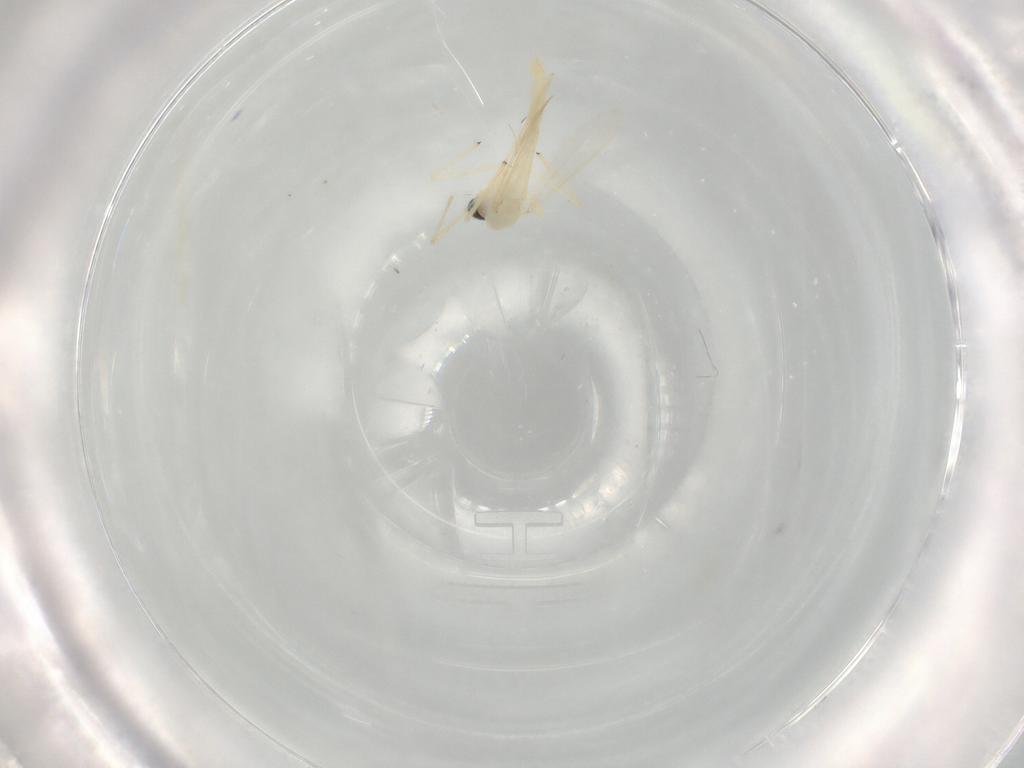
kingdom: Animalia
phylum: Arthropoda
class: Insecta
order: Diptera
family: Chironomidae
